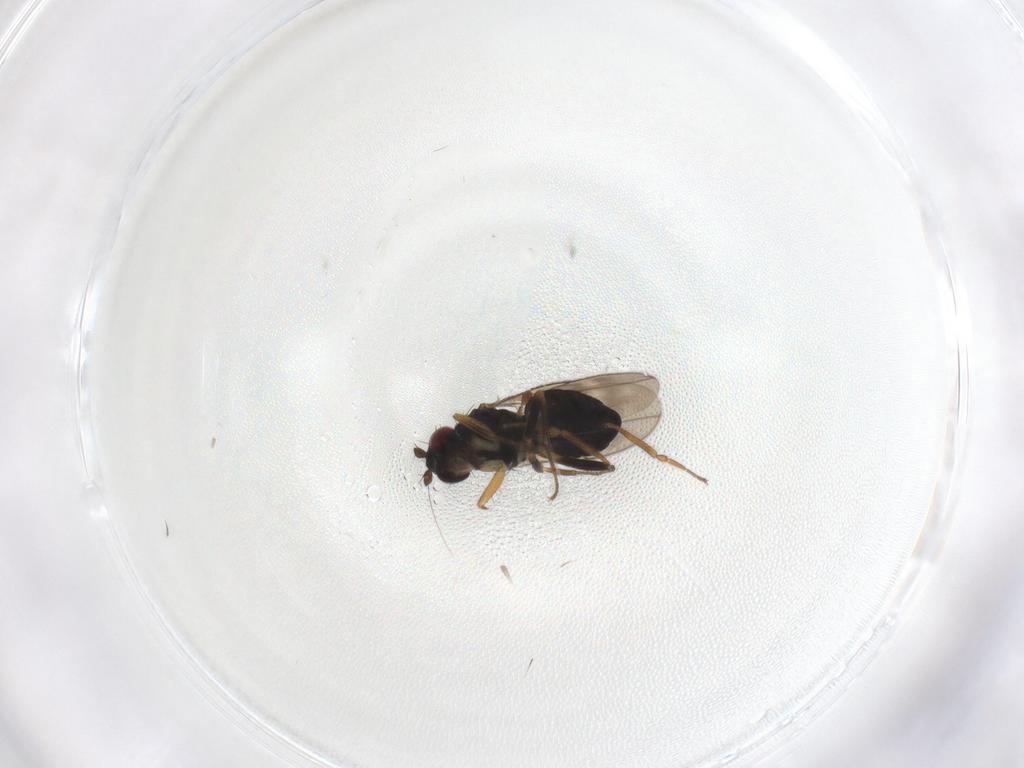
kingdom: Animalia
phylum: Arthropoda
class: Insecta
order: Diptera
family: Sphaeroceridae
